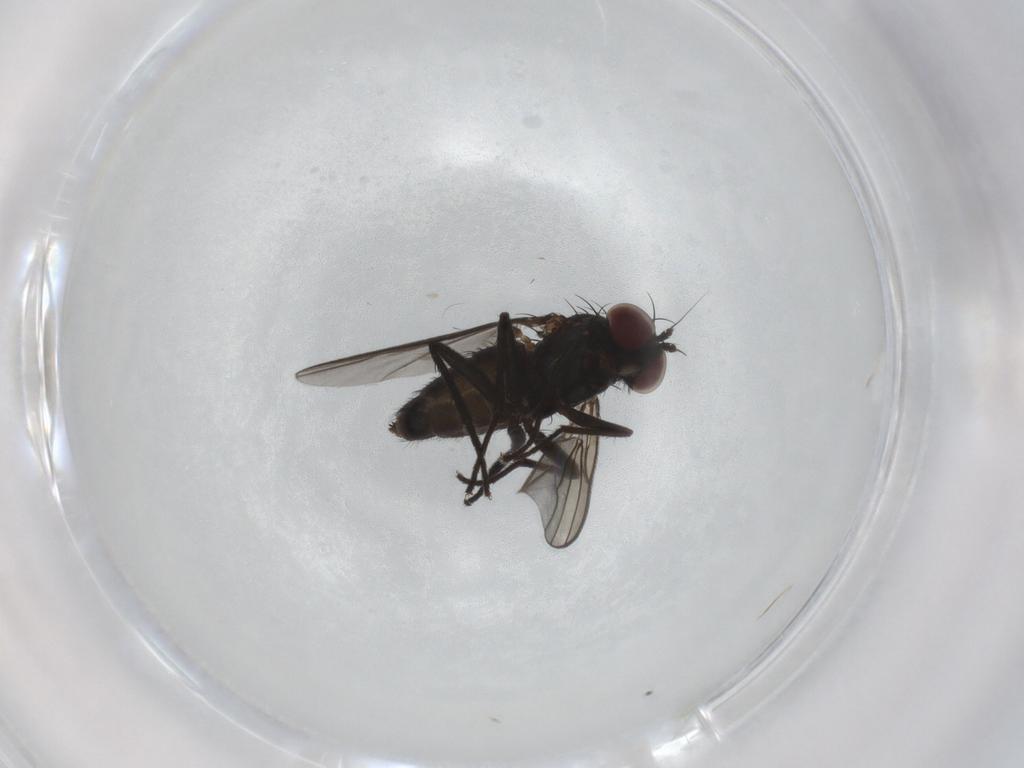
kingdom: Animalia
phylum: Arthropoda
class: Insecta
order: Diptera
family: Dolichopodidae
